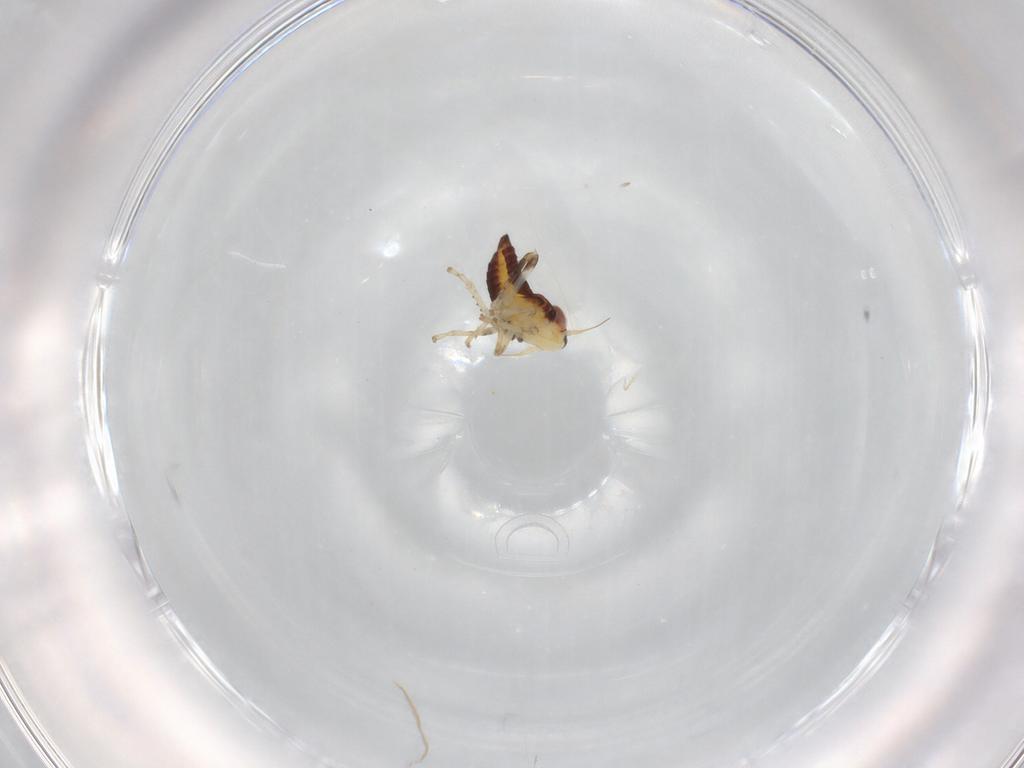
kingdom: Animalia
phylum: Arthropoda
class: Insecta
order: Hemiptera
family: Cicadellidae
